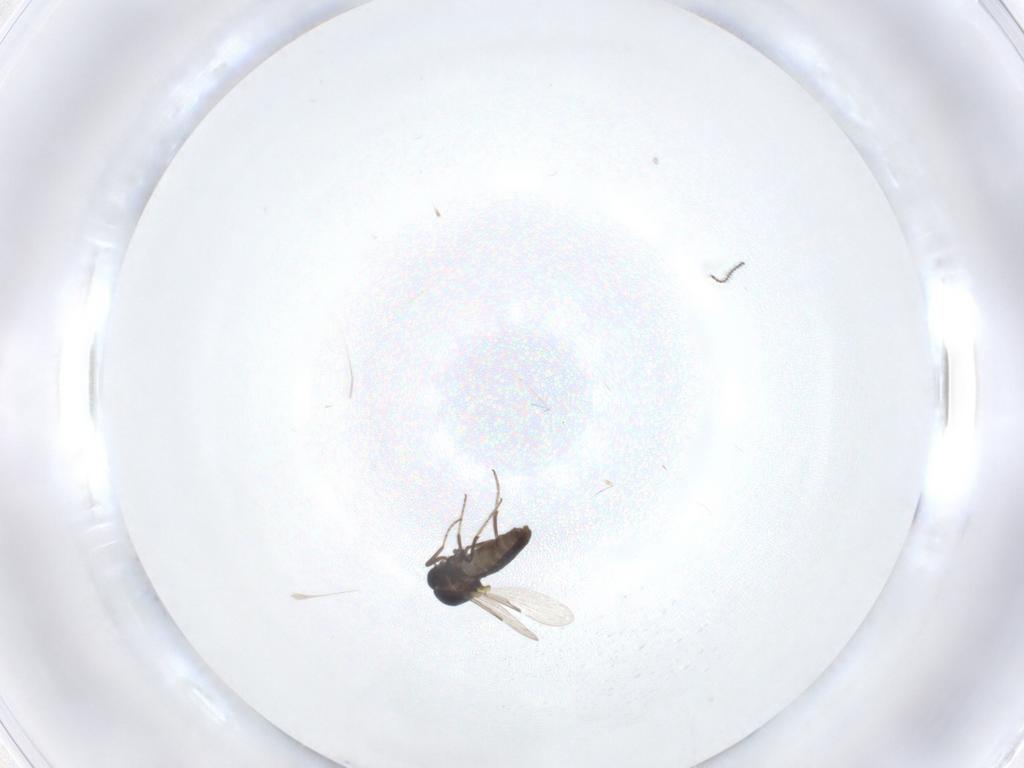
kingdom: Animalia
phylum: Arthropoda
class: Insecta
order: Diptera
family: Ceratopogonidae
